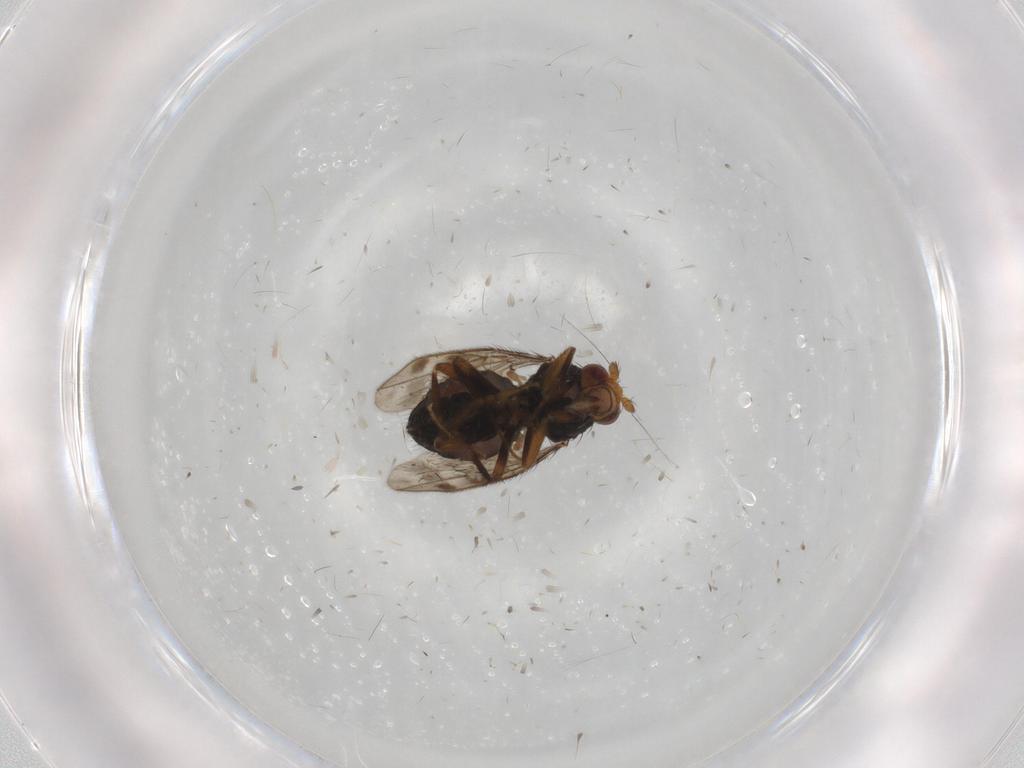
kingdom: Animalia
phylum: Arthropoda
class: Insecta
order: Diptera
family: Sphaeroceridae
